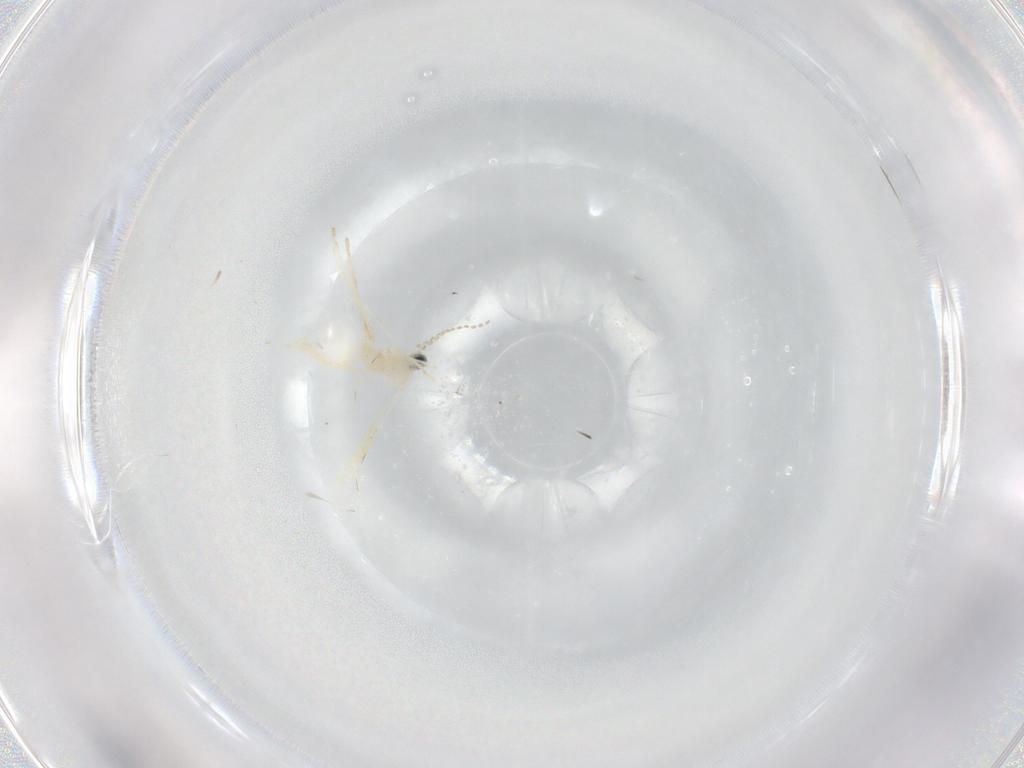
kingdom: Animalia
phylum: Arthropoda
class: Insecta
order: Diptera
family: Cecidomyiidae
